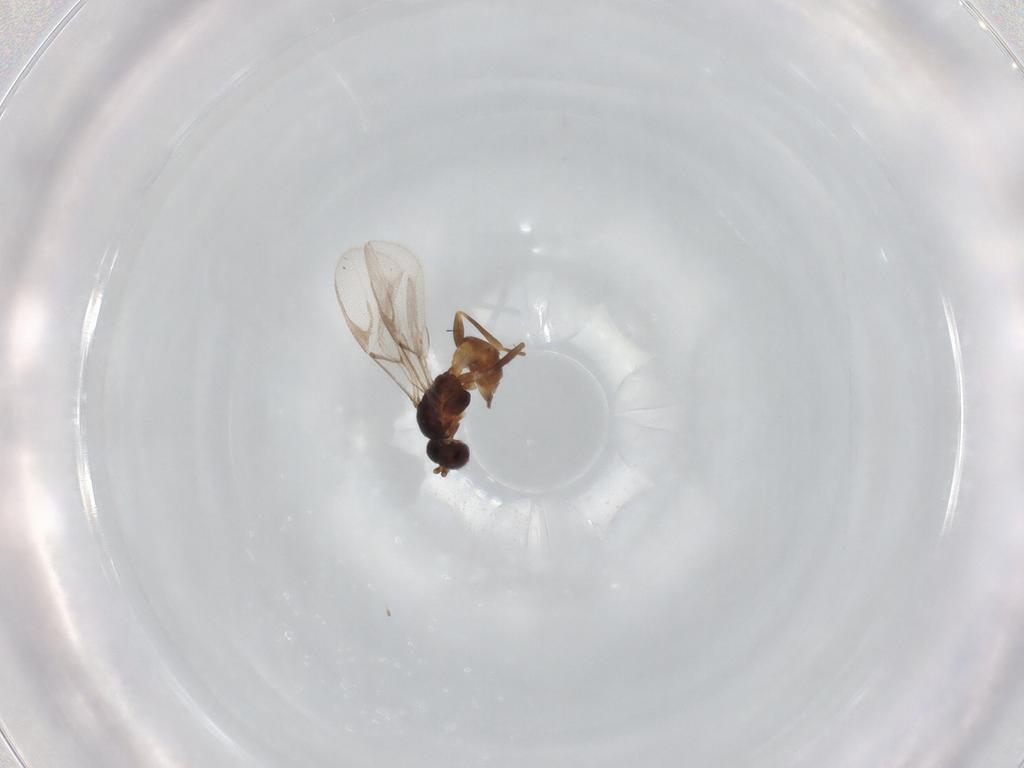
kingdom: Animalia
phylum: Arthropoda
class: Insecta
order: Hymenoptera
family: Braconidae
